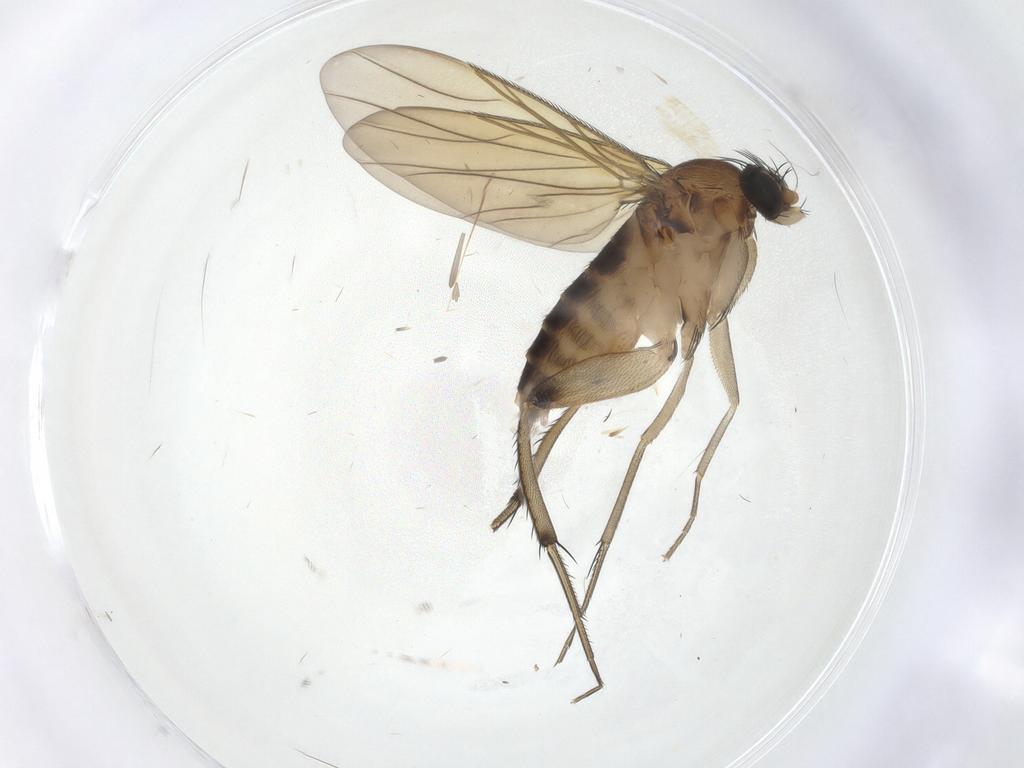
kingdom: Animalia
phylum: Arthropoda
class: Insecta
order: Diptera
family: Phoridae
